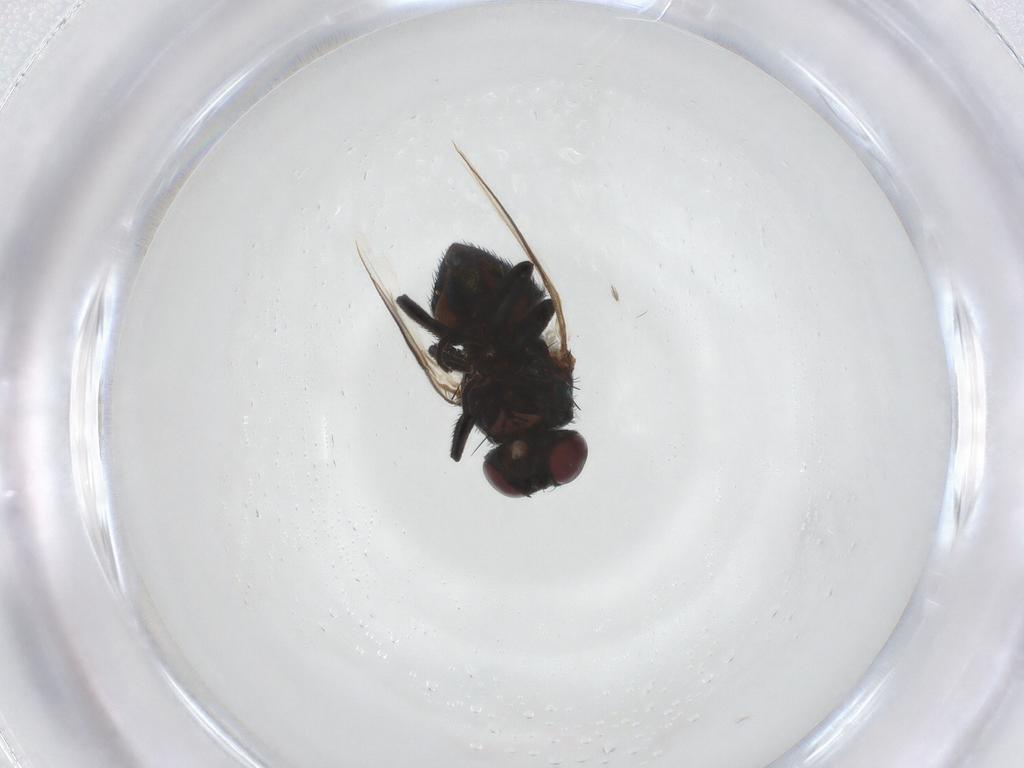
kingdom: Animalia
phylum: Arthropoda
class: Insecta
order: Diptera
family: Agromyzidae
